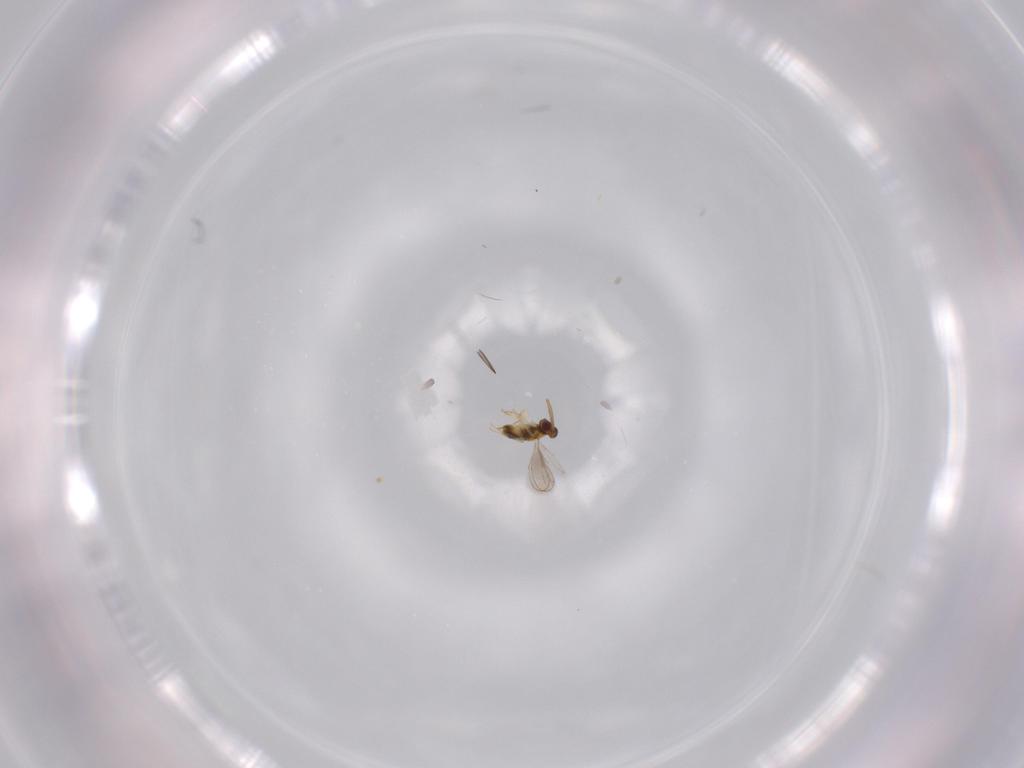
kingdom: Animalia
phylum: Arthropoda
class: Insecta
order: Hymenoptera
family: Aphelinidae
